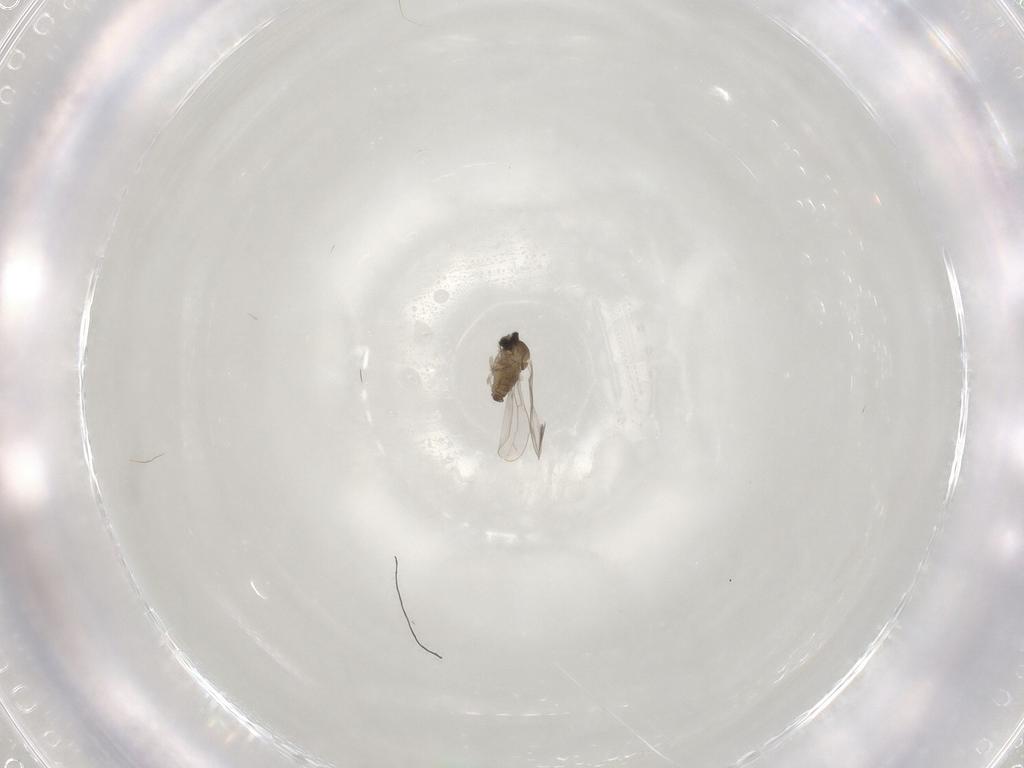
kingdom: Animalia
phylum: Arthropoda
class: Insecta
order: Diptera
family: Cecidomyiidae
